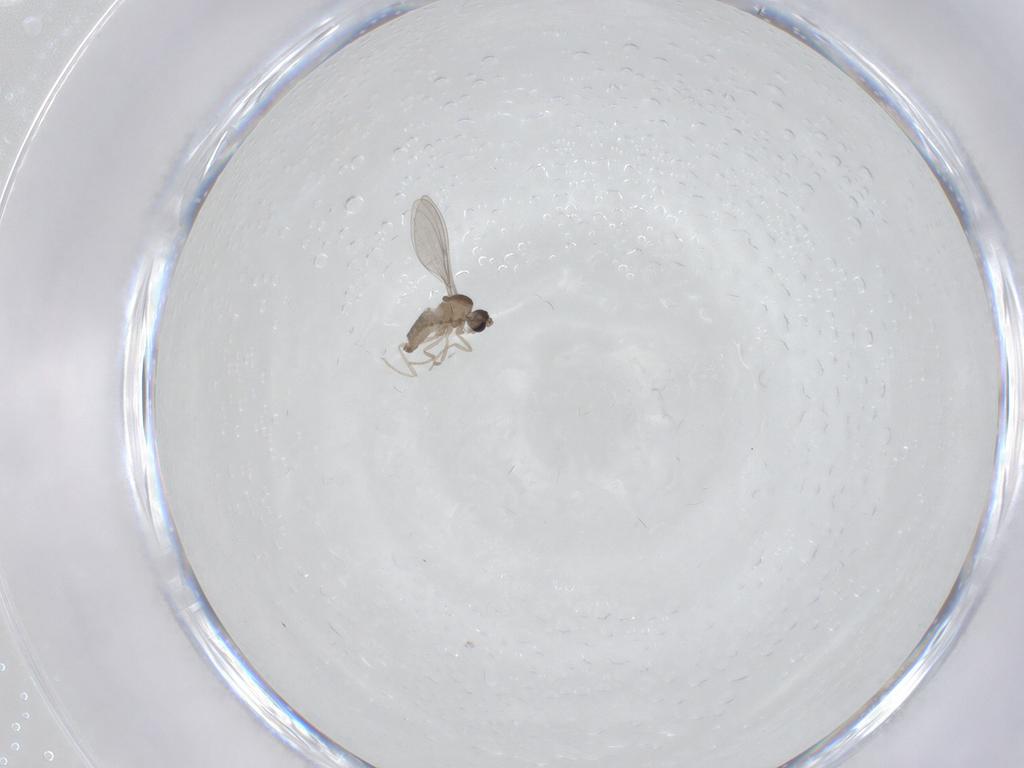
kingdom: Animalia
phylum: Arthropoda
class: Insecta
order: Diptera
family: Cecidomyiidae
